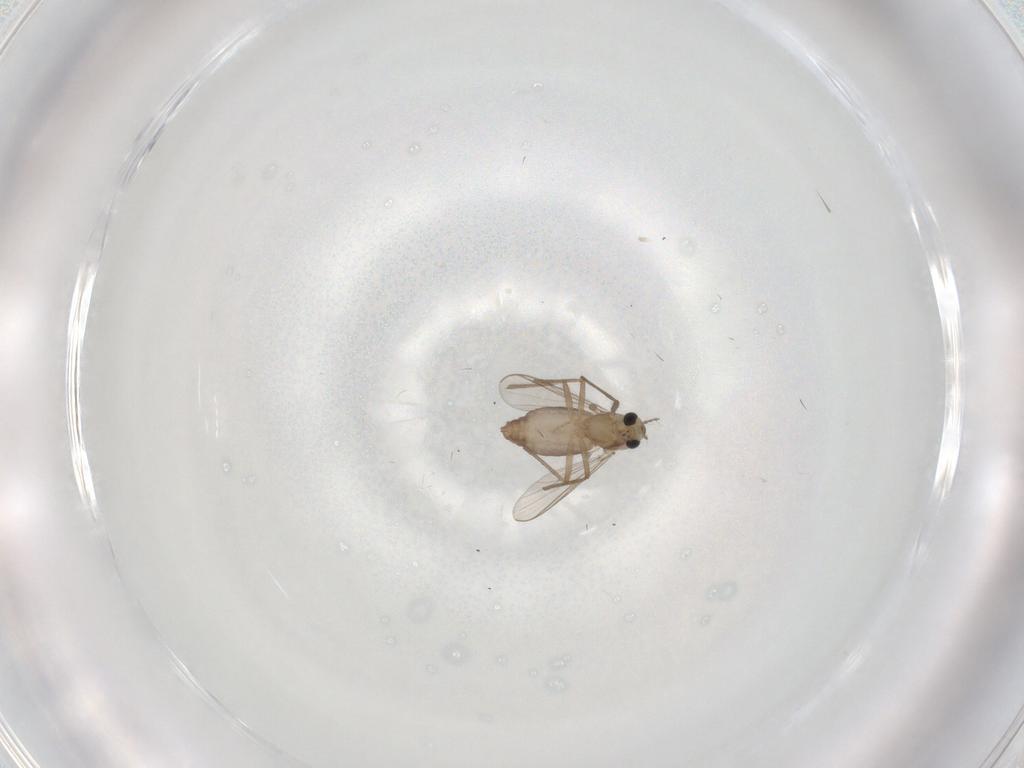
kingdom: Animalia
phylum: Arthropoda
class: Insecta
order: Diptera
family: Chironomidae
